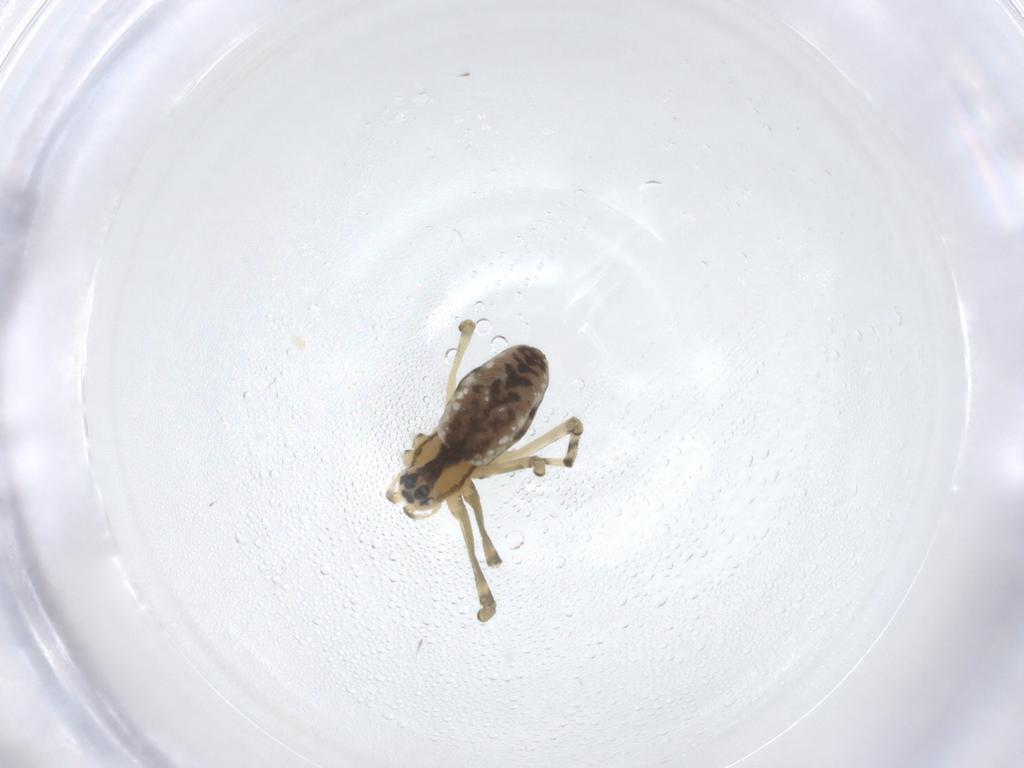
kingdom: Animalia
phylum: Arthropoda
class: Arachnida
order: Araneae
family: Linyphiidae
